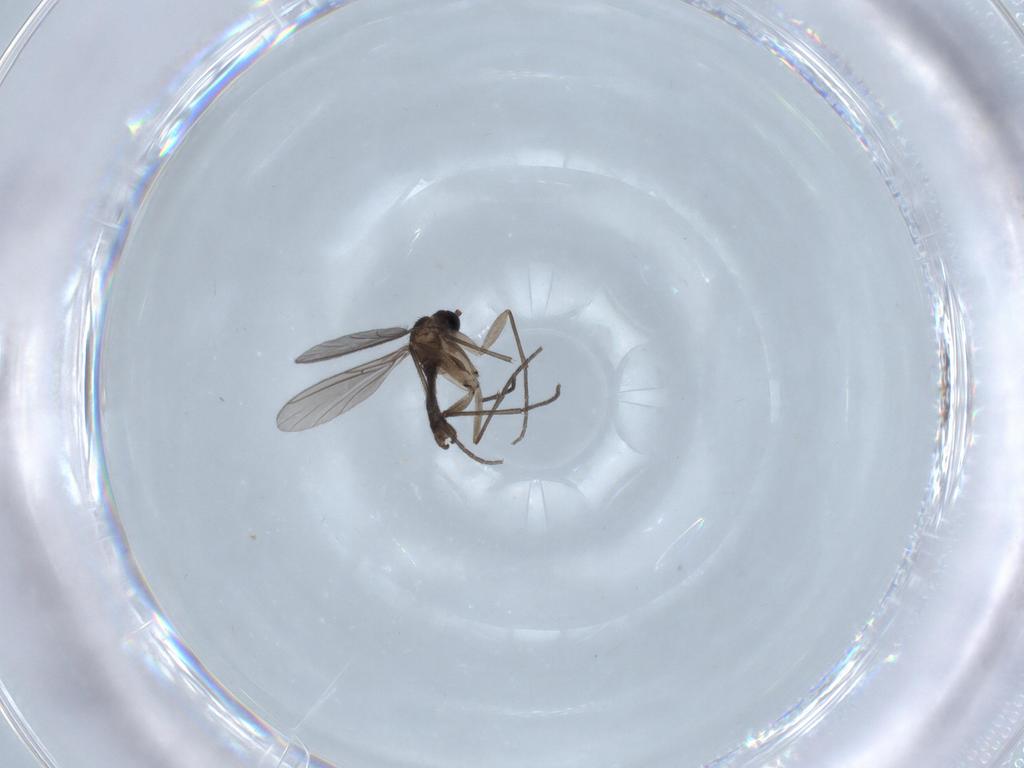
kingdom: Animalia
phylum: Arthropoda
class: Insecta
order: Diptera
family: Sciaridae
